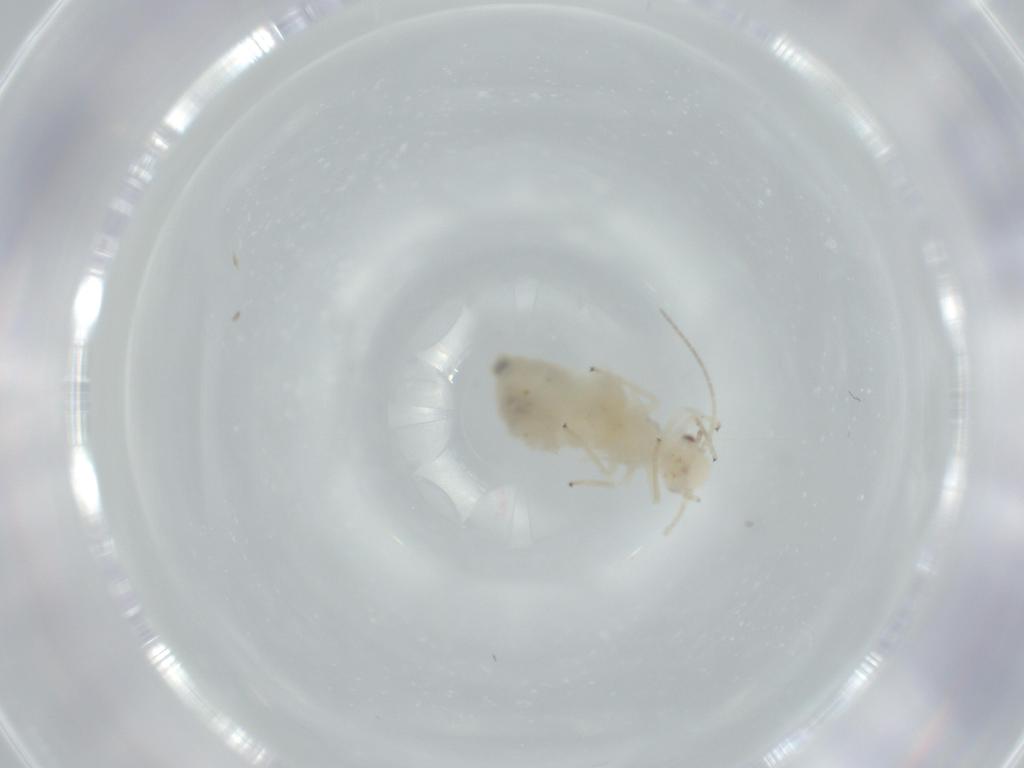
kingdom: Animalia
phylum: Arthropoda
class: Insecta
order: Psocodea
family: Caeciliusidae
